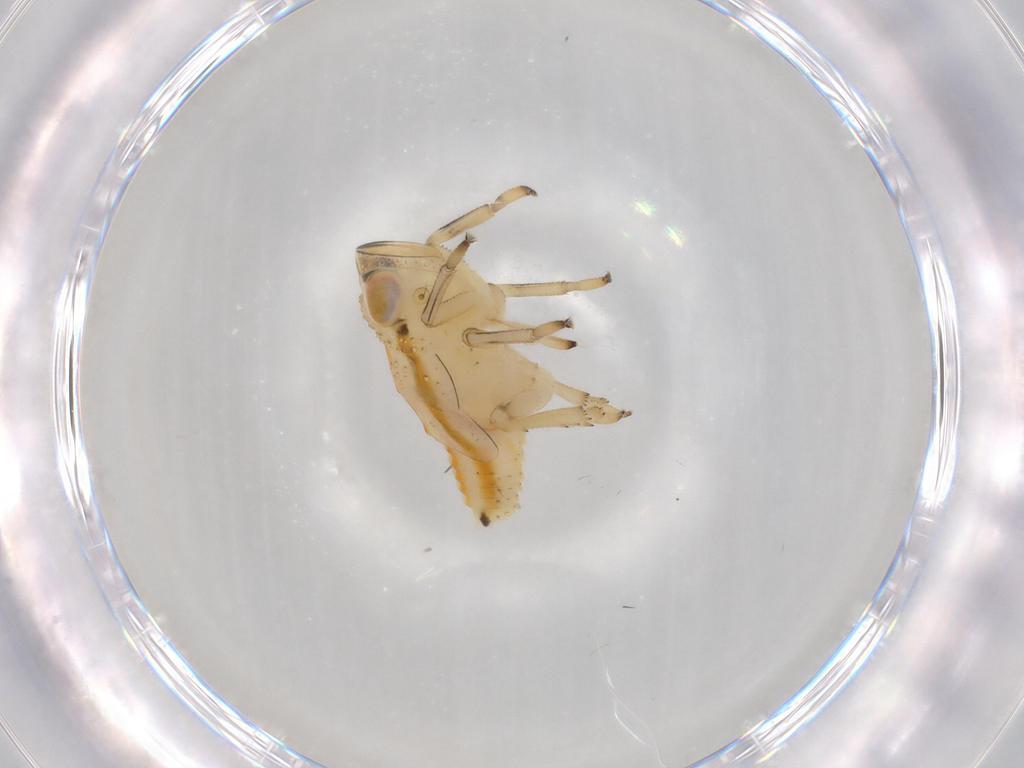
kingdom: Animalia
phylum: Arthropoda
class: Insecta
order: Hemiptera
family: Issidae
